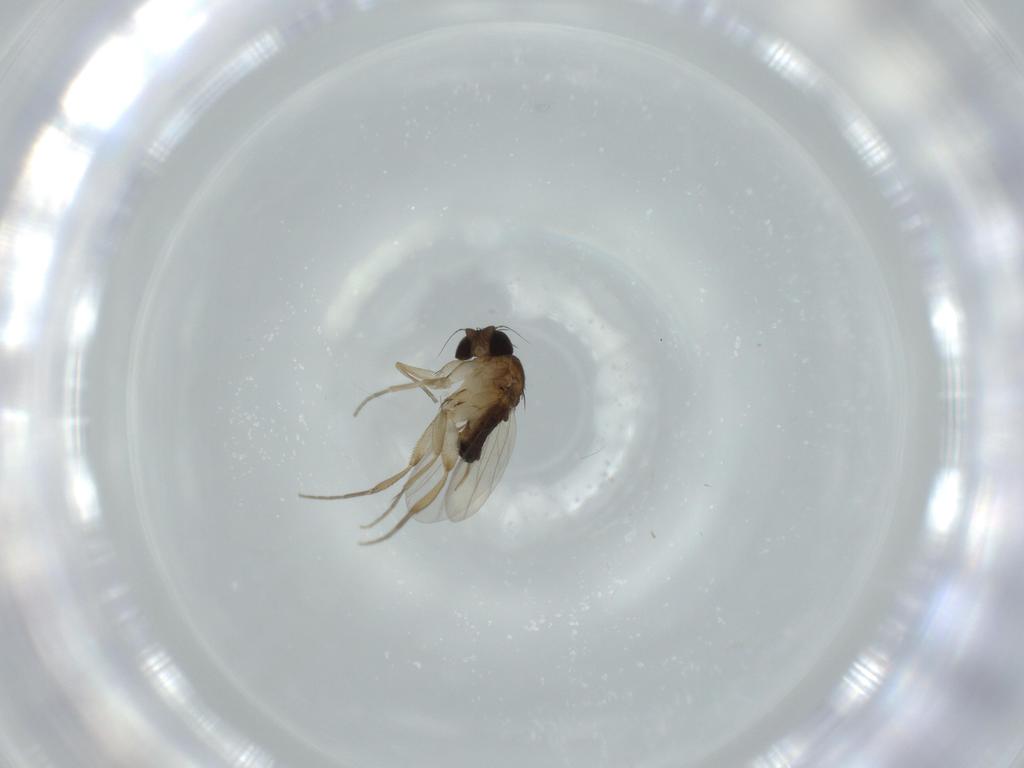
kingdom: Animalia
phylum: Arthropoda
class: Insecta
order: Diptera
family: Phoridae
